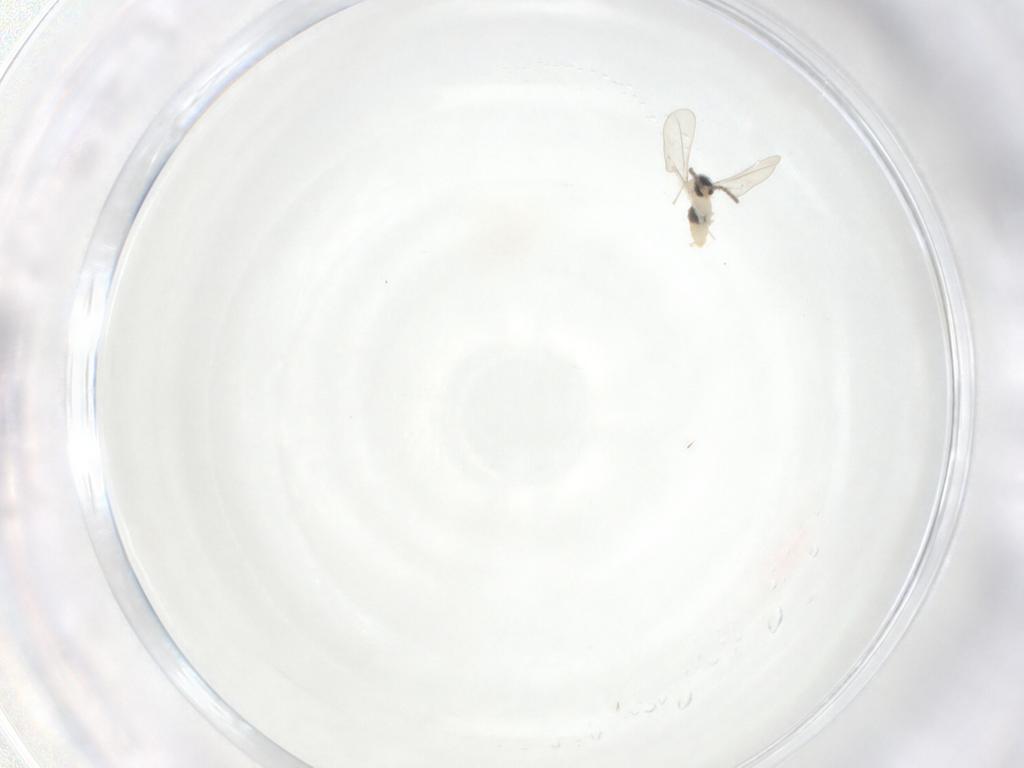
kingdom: Animalia
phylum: Arthropoda
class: Insecta
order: Diptera
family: Cecidomyiidae
